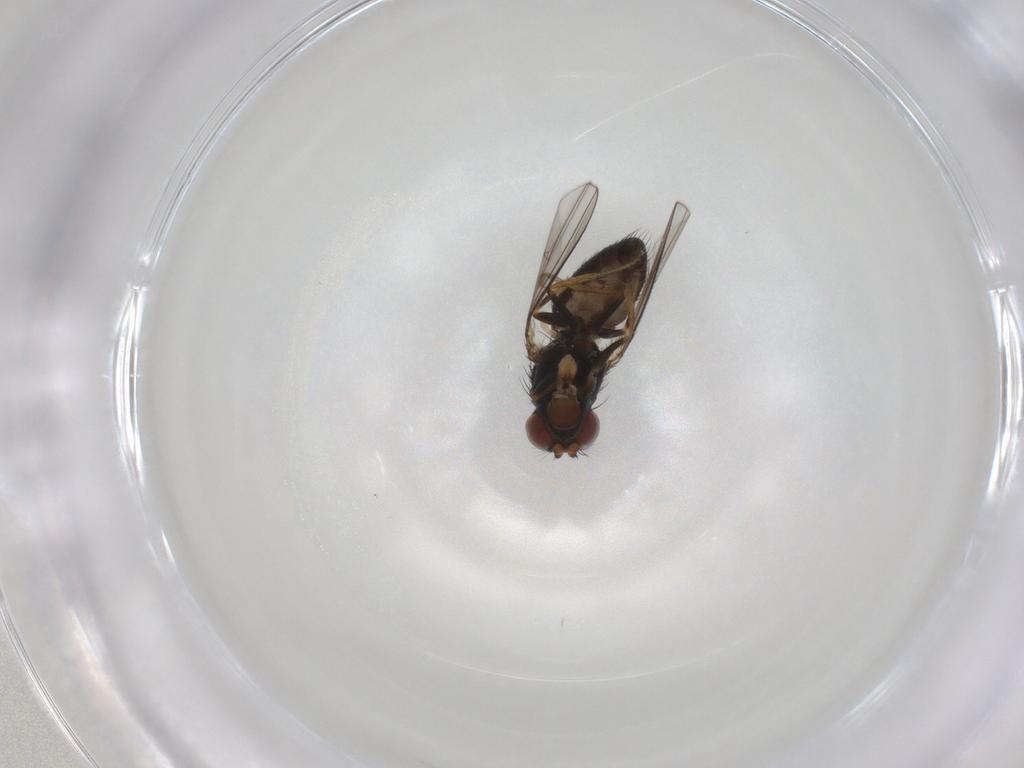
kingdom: Animalia
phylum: Arthropoda
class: Insecta
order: Diptera
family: Ephydridae
